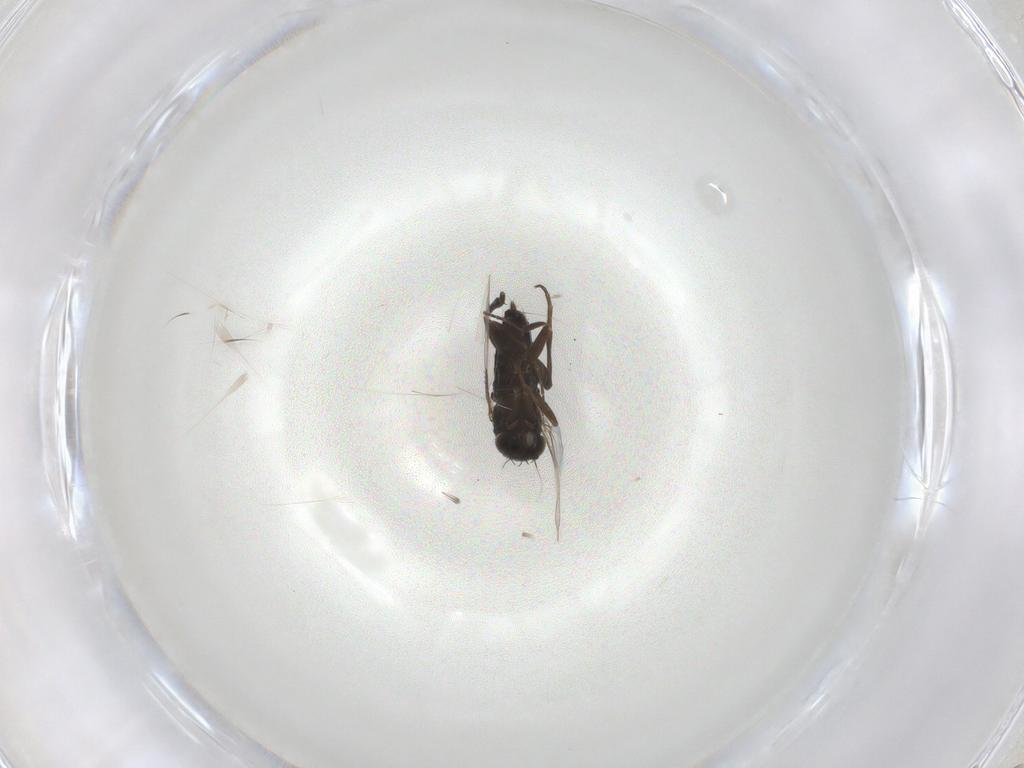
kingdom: Animalia
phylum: Arthropoda
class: Insecta
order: Diptera
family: Phoridae
